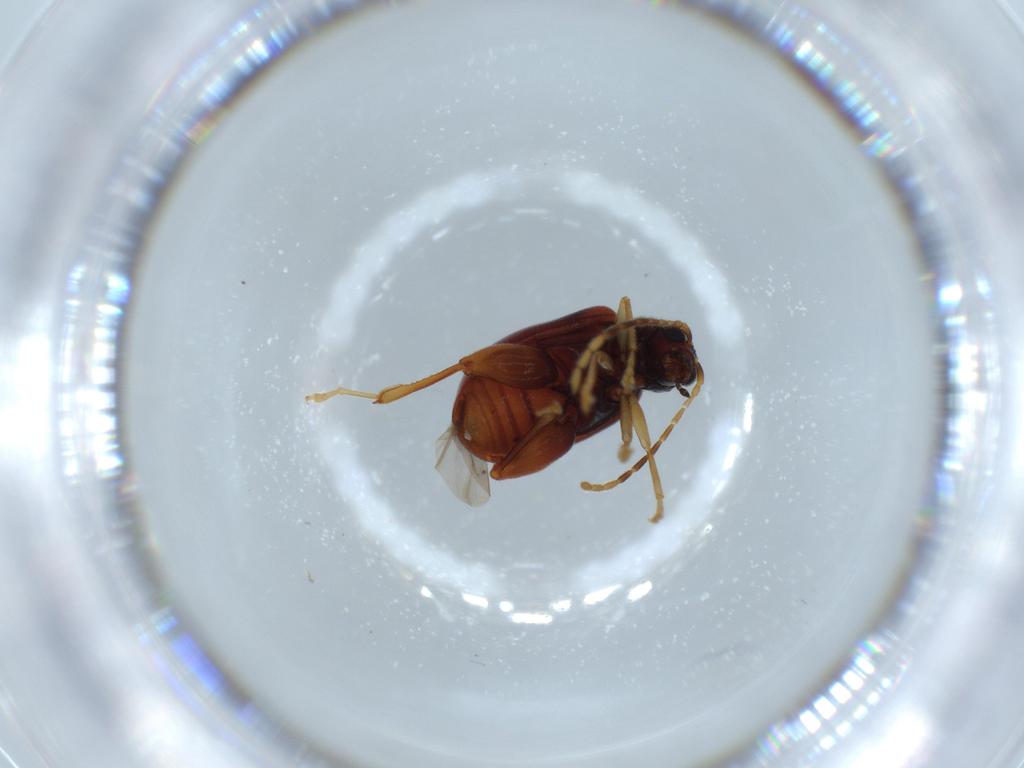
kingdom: Animalia
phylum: Arthropoda
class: Insecta
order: Coleoptera
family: Chrysomelidae
